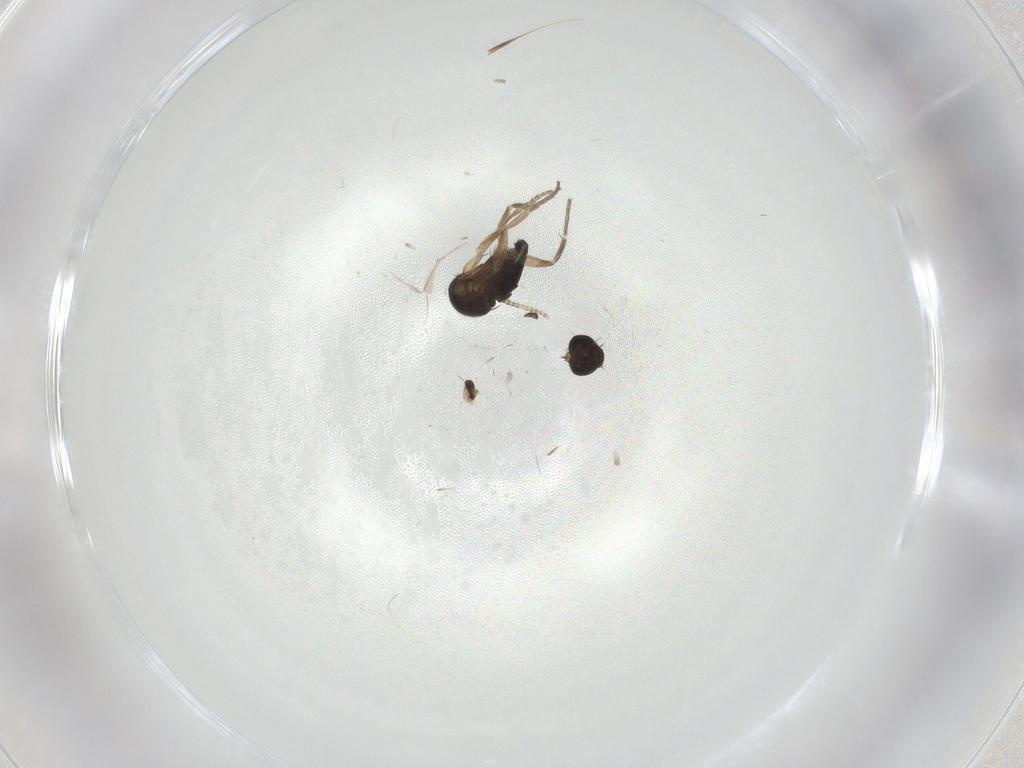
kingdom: Animalia
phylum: Arthropoda
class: Insecta
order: Diptera
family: Phoridae
